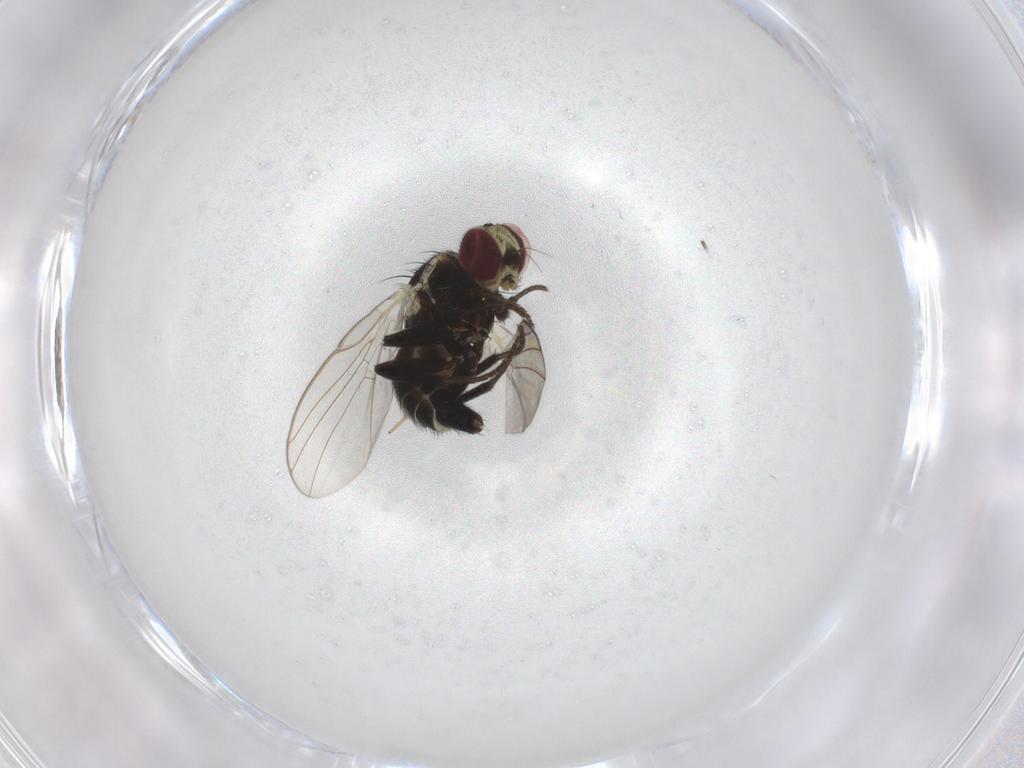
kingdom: Animalia
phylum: Arthropoda
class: Insecta
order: Diptera
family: Agromyzidae
